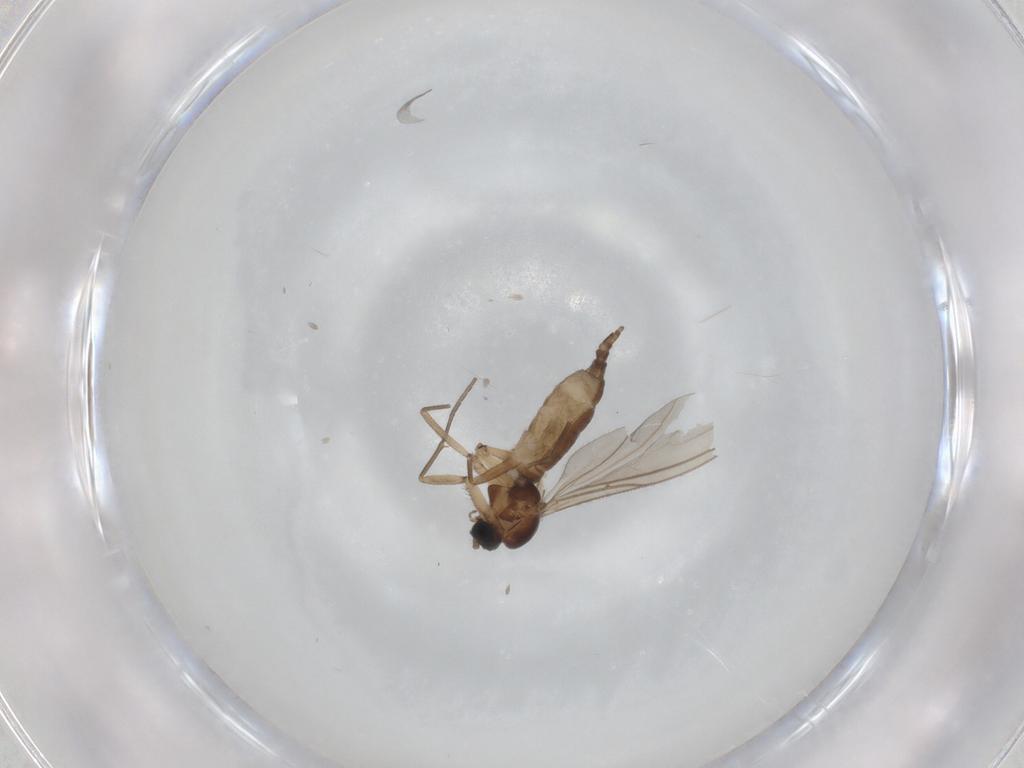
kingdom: Animalia
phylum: Arthropoda
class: Insecta
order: Diptera
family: Sciaridae
